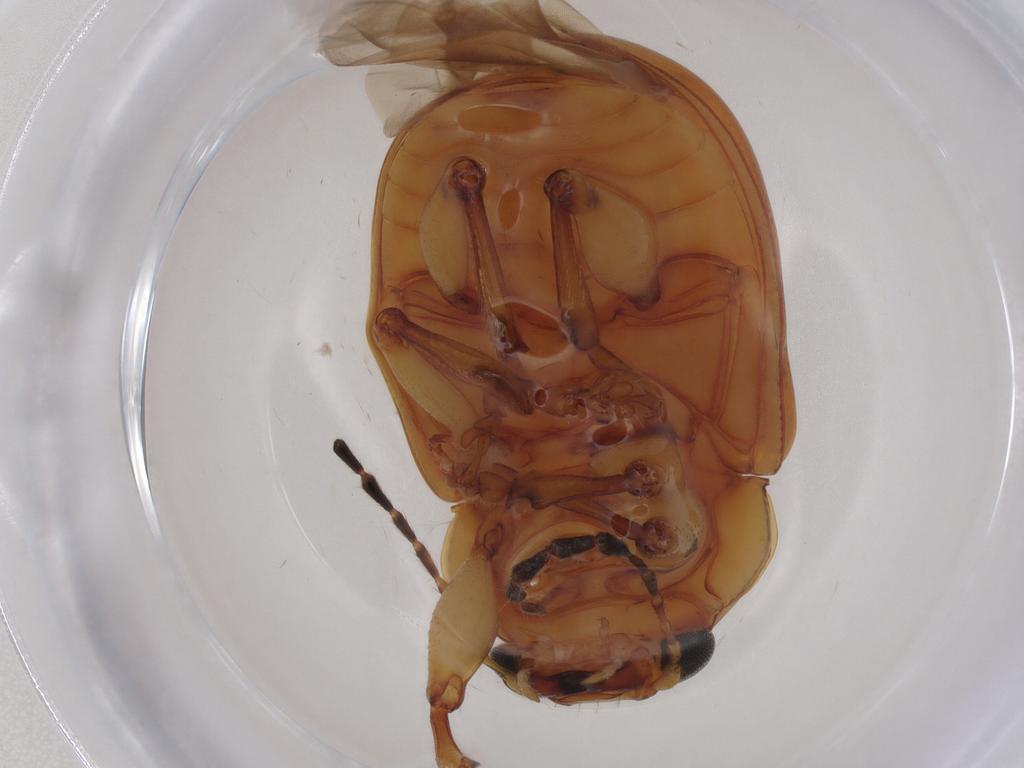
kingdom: Animalia
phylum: Arthropoda
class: Insecta
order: Coleoptera
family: Chrysomelidae
